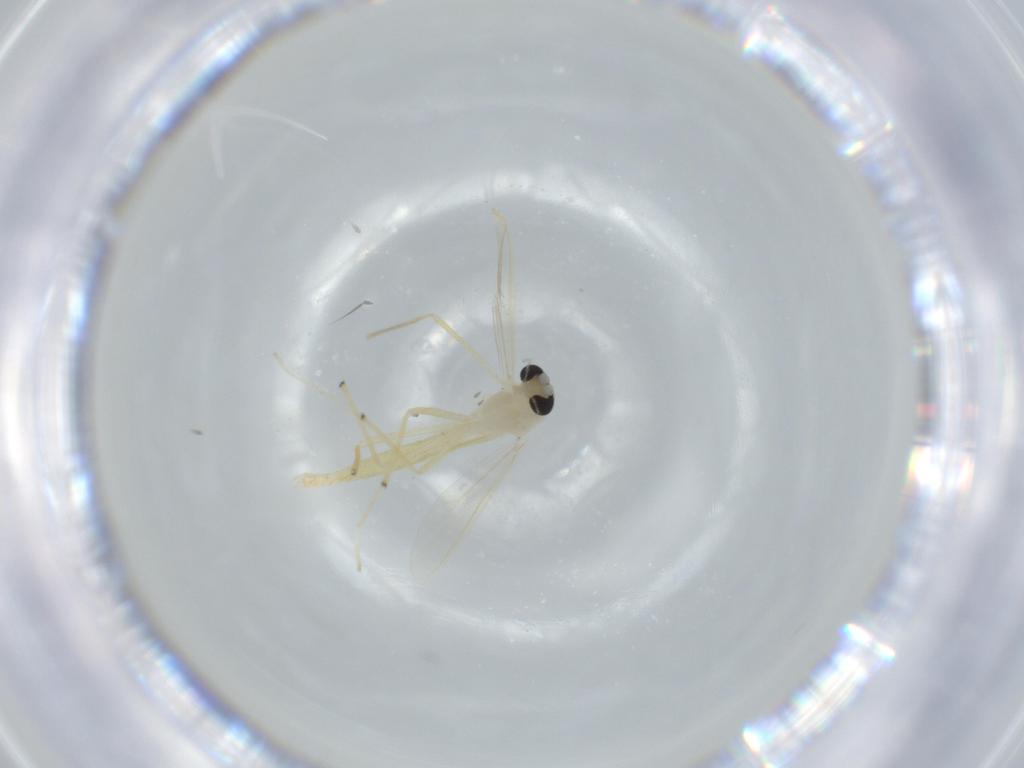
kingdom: Animalia
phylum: Arthropoda
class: Insecta
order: Diptera
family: Chironomidae
